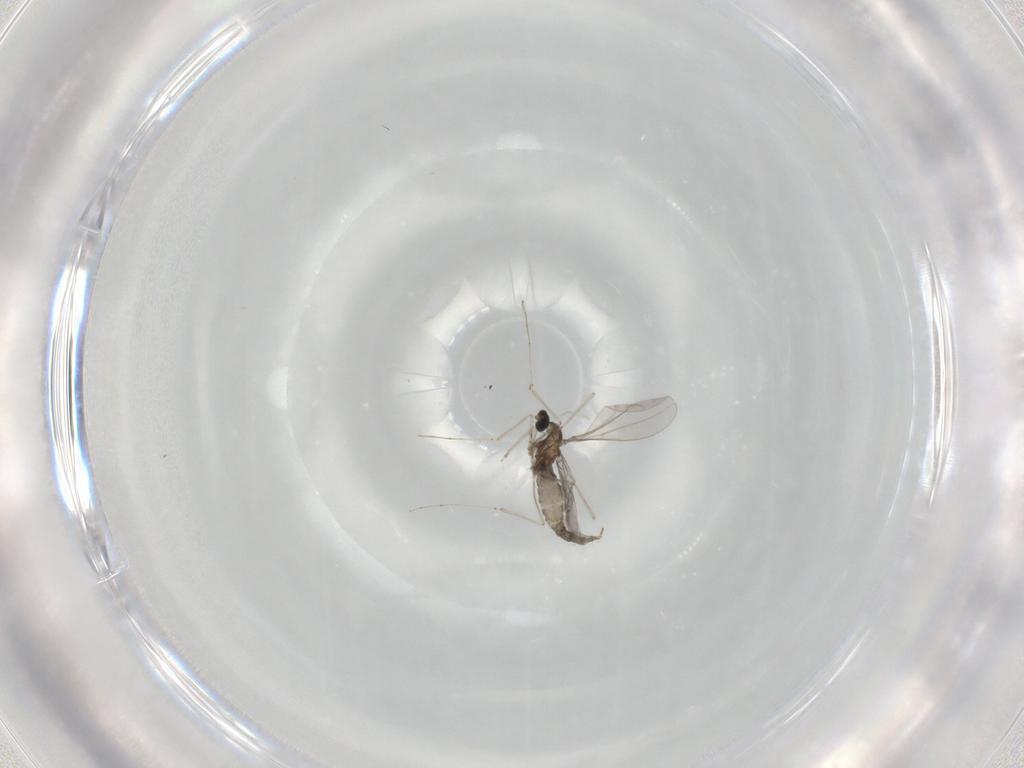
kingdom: Animalia
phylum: Arthropoda
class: Insecta
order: Diptera
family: Cecidomyiidae
